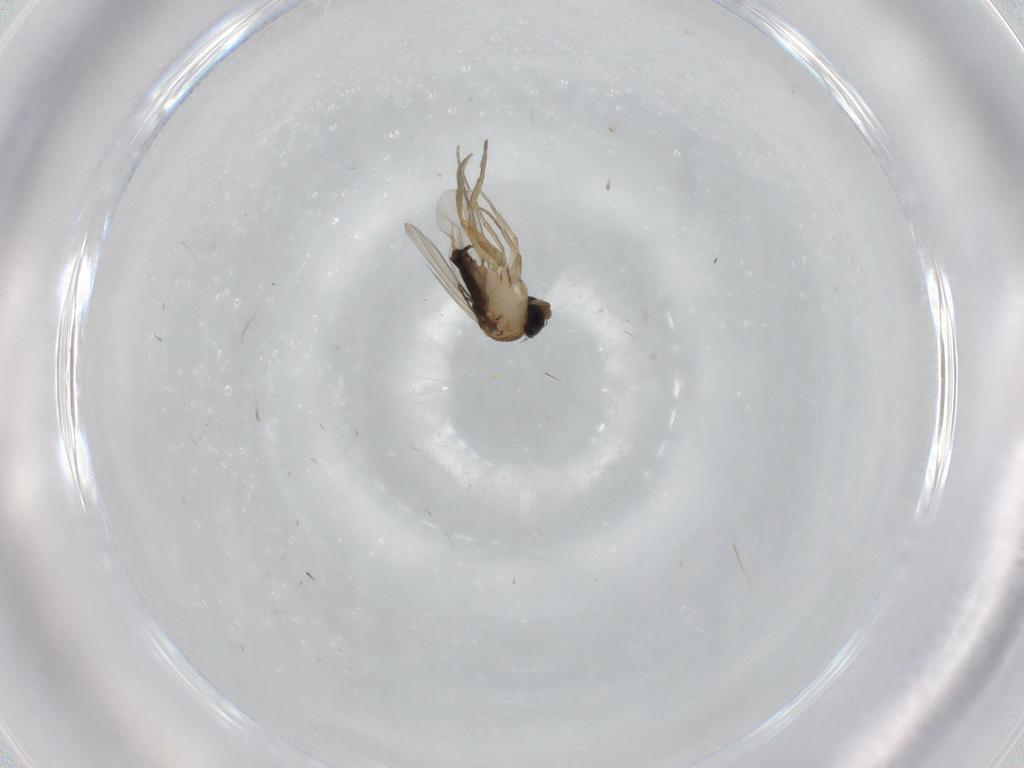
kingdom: Animalia
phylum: Arthropoda
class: Insecta
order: Diptera
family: Phoridae
